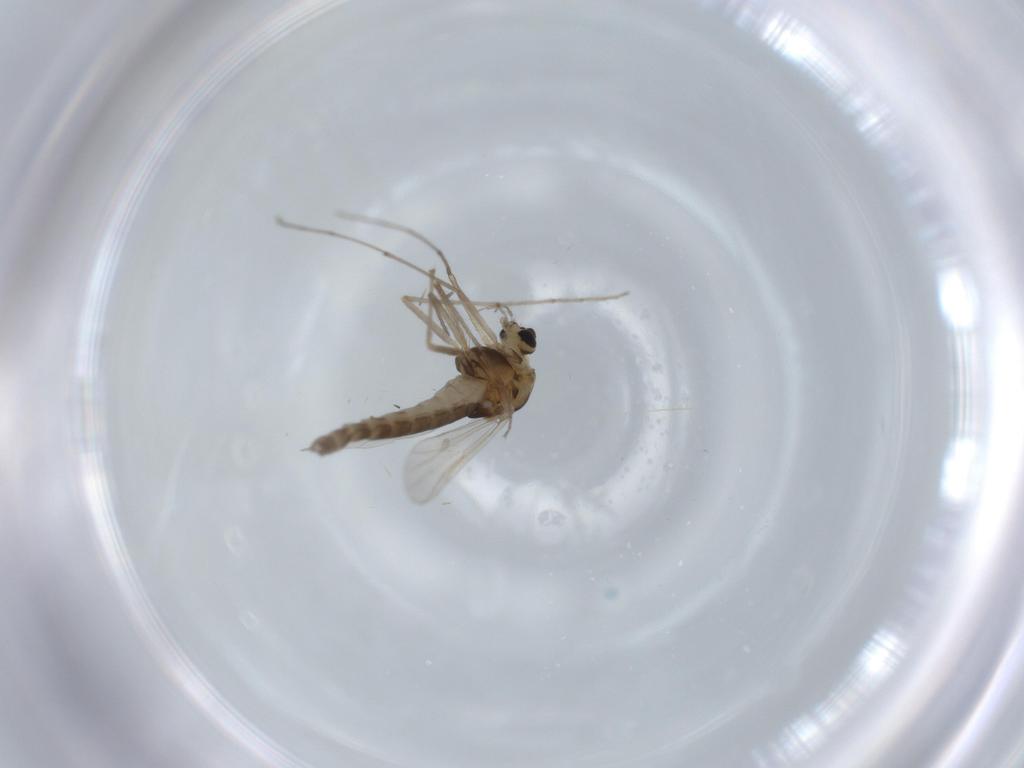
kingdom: Animalia
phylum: Arthropoda
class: Insecta
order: Diptera
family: Chironomidae
